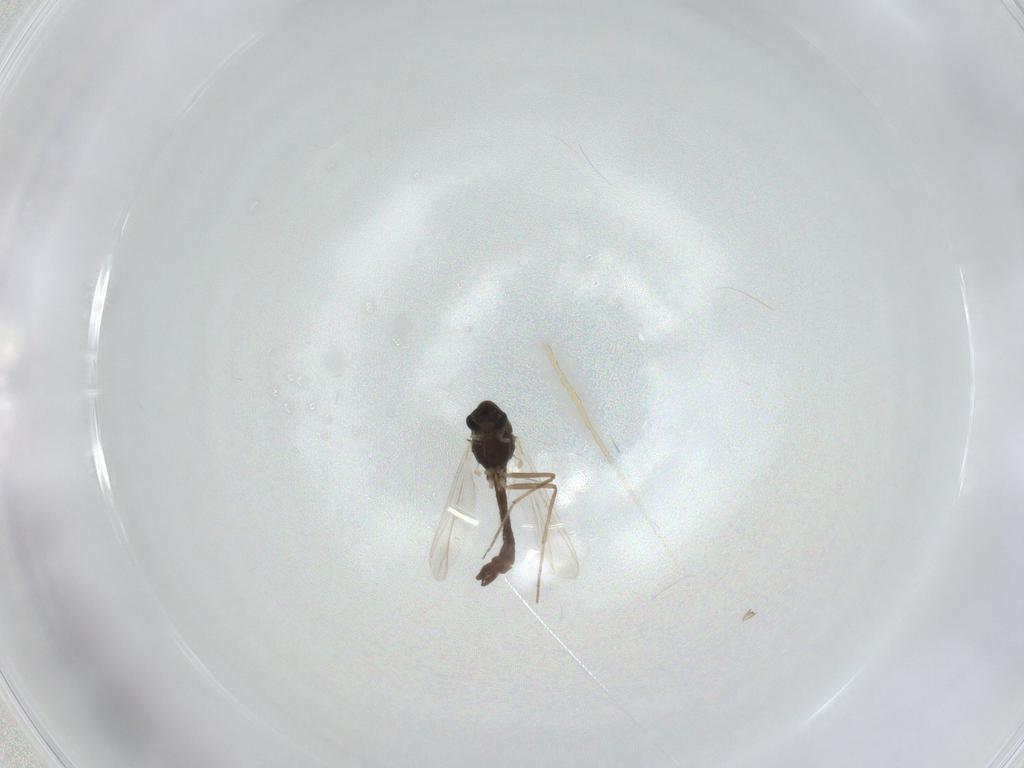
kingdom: Animalia
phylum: Arthropoda
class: Insecta
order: Diptera
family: Chironomidae
